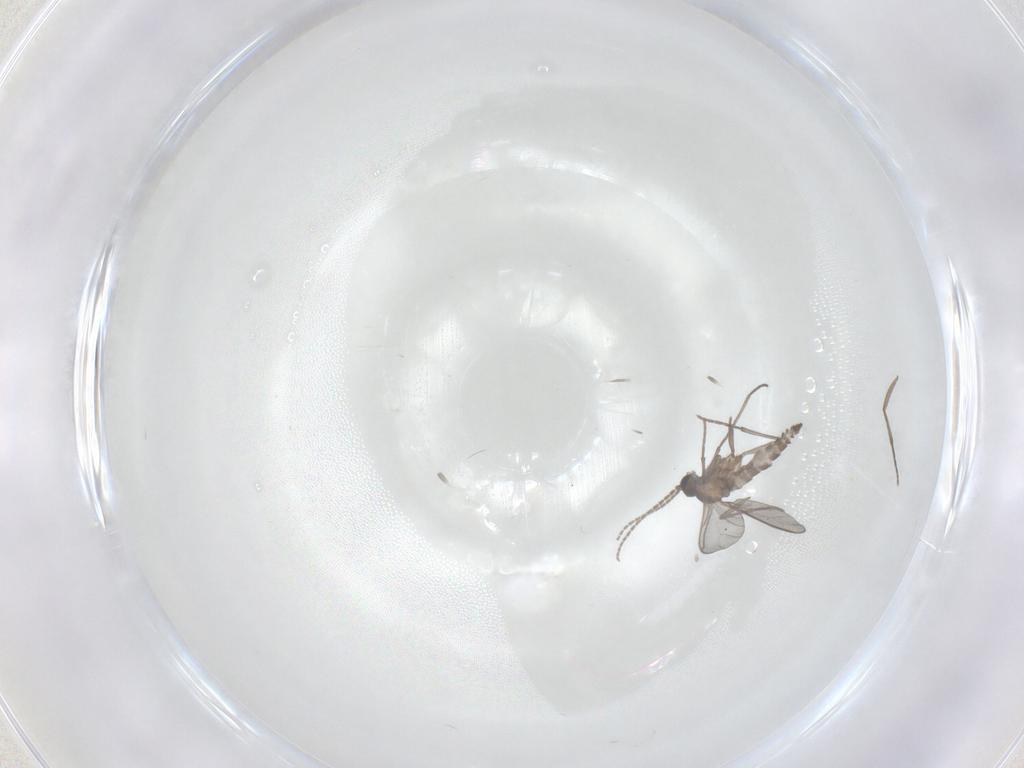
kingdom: Animalia
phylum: Arthropoda
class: Insecta
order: Diptera
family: Sciaridae
